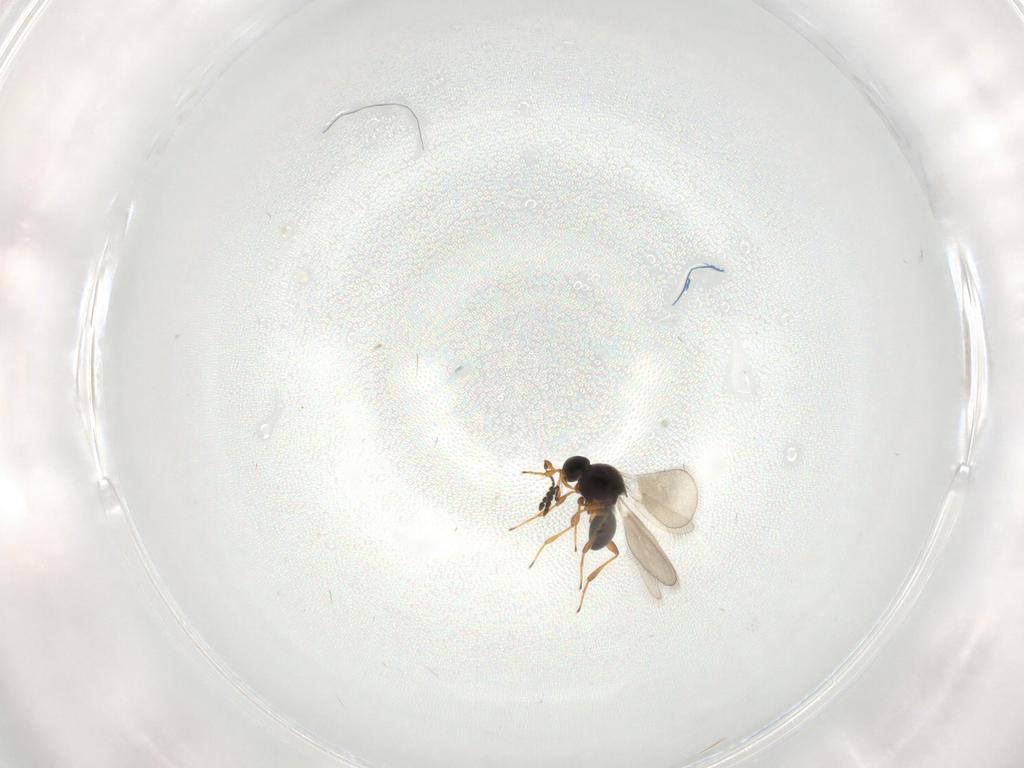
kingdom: Animalia
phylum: Arthropoda
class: Insecta
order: Hymenoptera
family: Platygastridae
